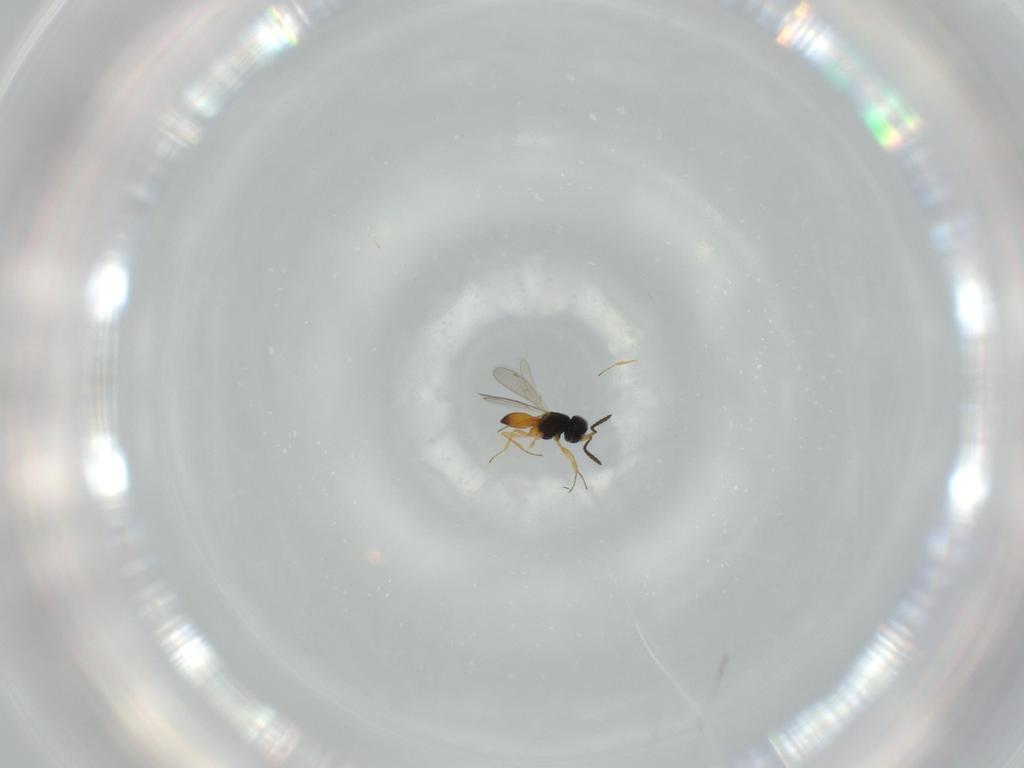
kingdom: Animalia
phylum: Arthropoda
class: Insecta
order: Hymenoptera
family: Scelionidae
